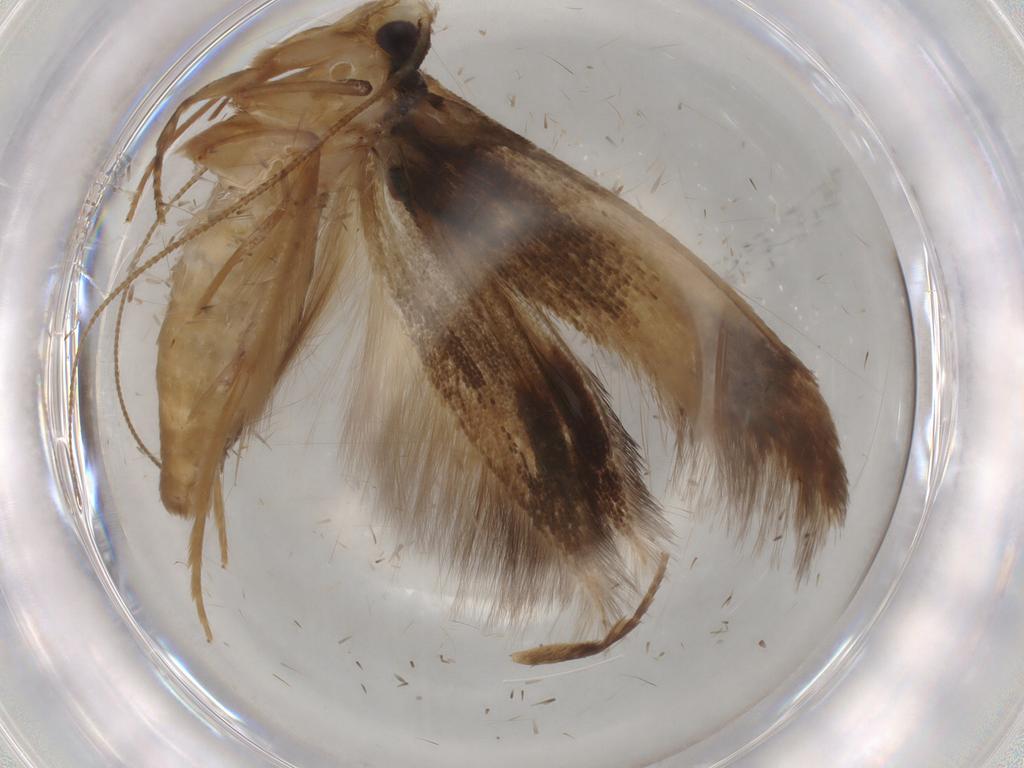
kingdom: Animalia
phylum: Arthropoda
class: Insecta
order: Lepidoptera
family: Tineidae
